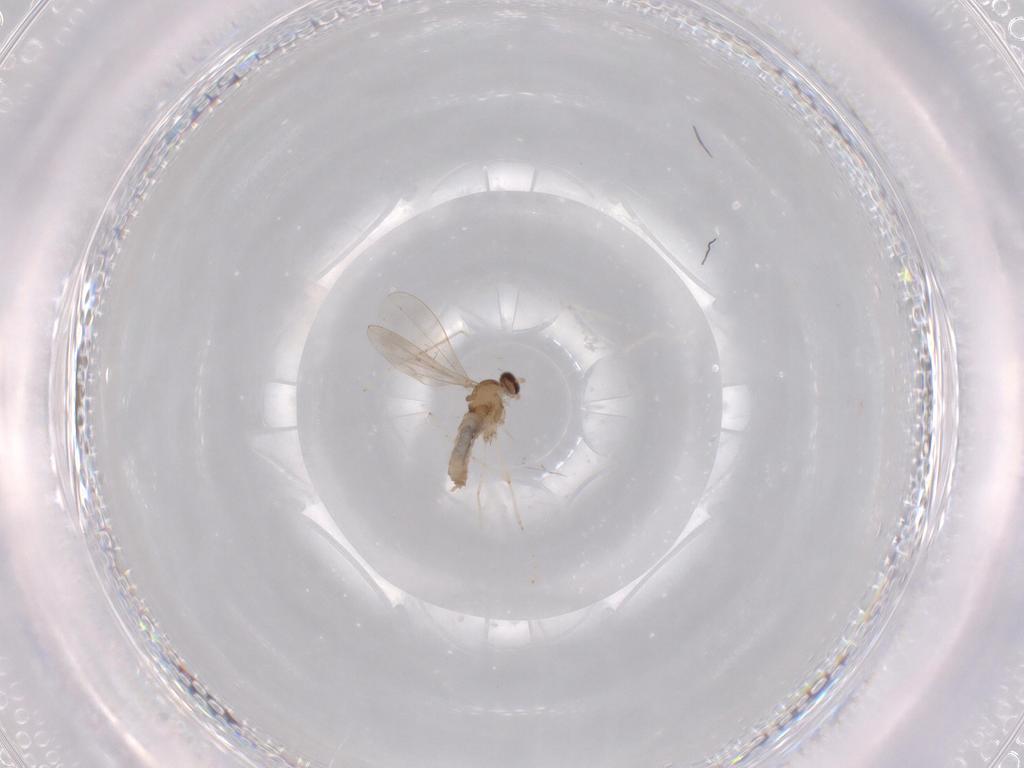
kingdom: Animalia
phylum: Arthropoda
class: Insecta
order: Diptera
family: Cecidomyiidae
